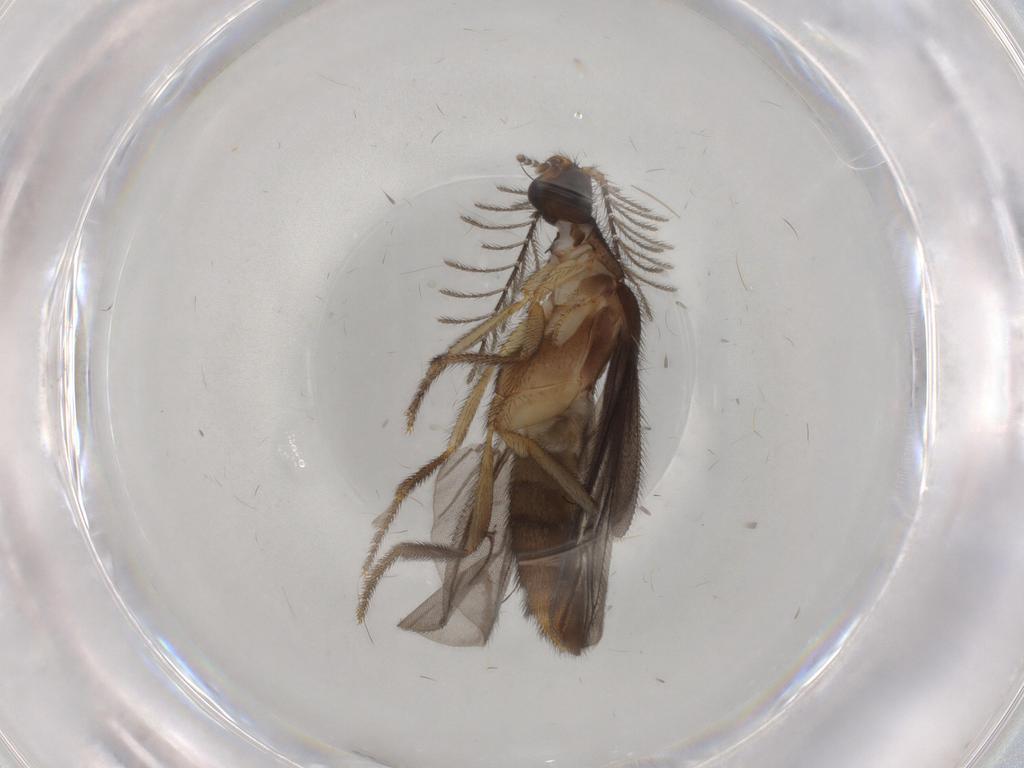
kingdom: Animalia
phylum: Arthropoda
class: Insecta
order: Coleoptera
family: Phengodidae
